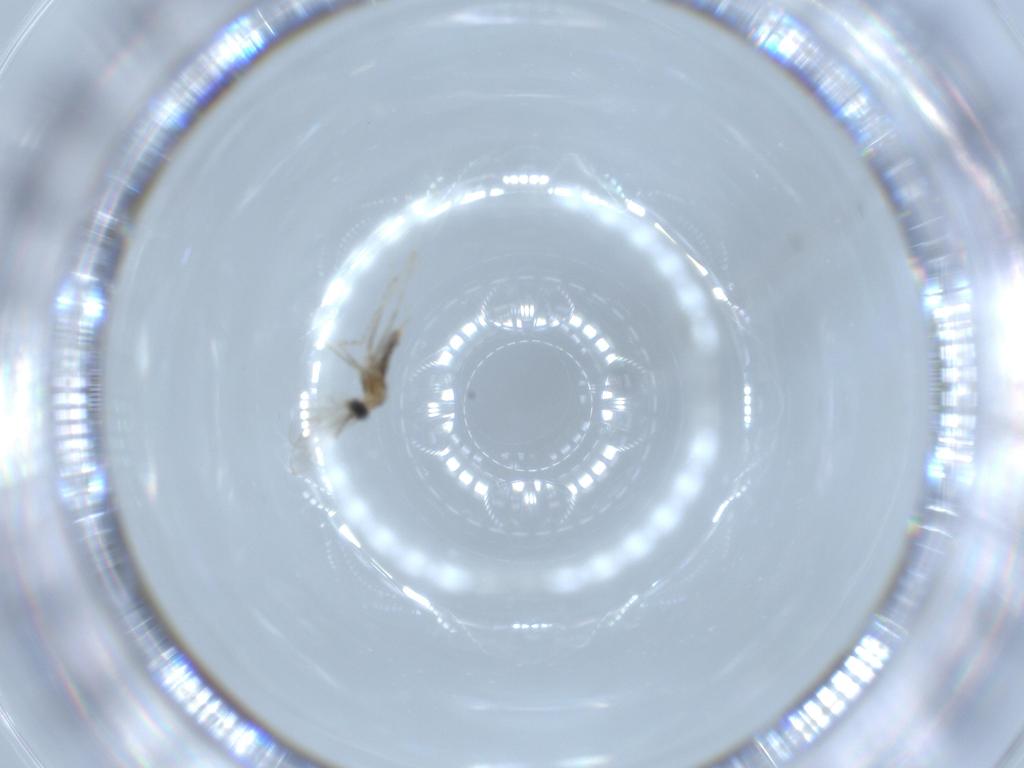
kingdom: Animalia
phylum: Arthropoda
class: Insecta
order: Diptera
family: Cecidomyiidae
